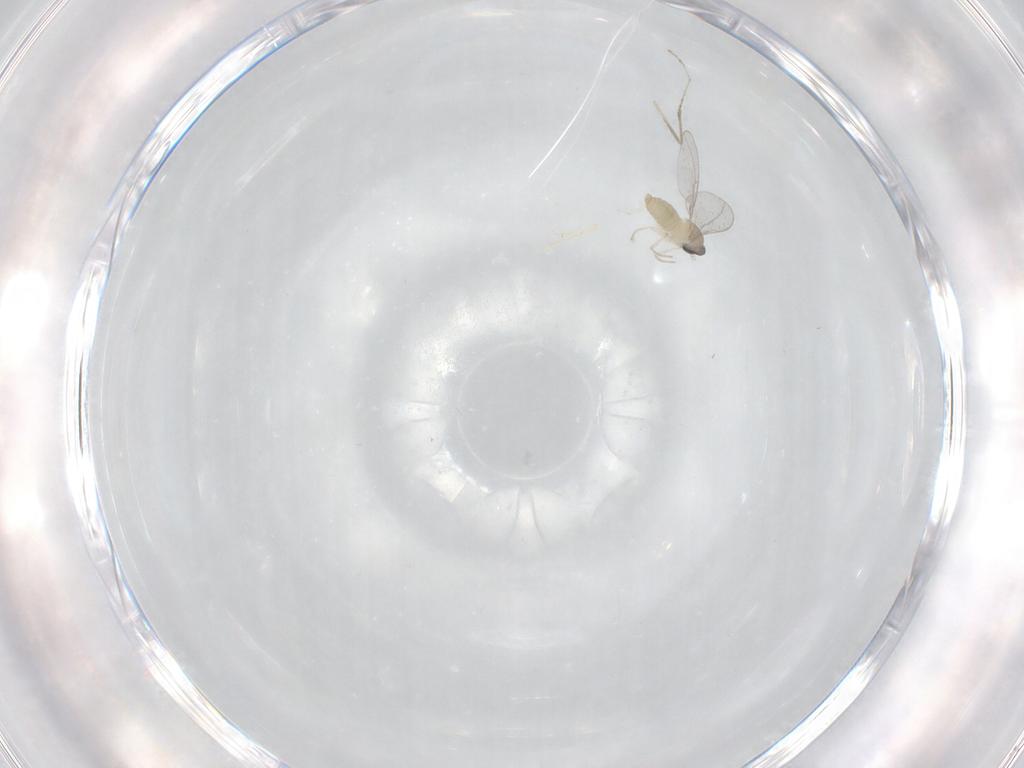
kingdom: Animalia
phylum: Arthropoda
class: Insecta
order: Diptera
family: Cecidomyiidae
